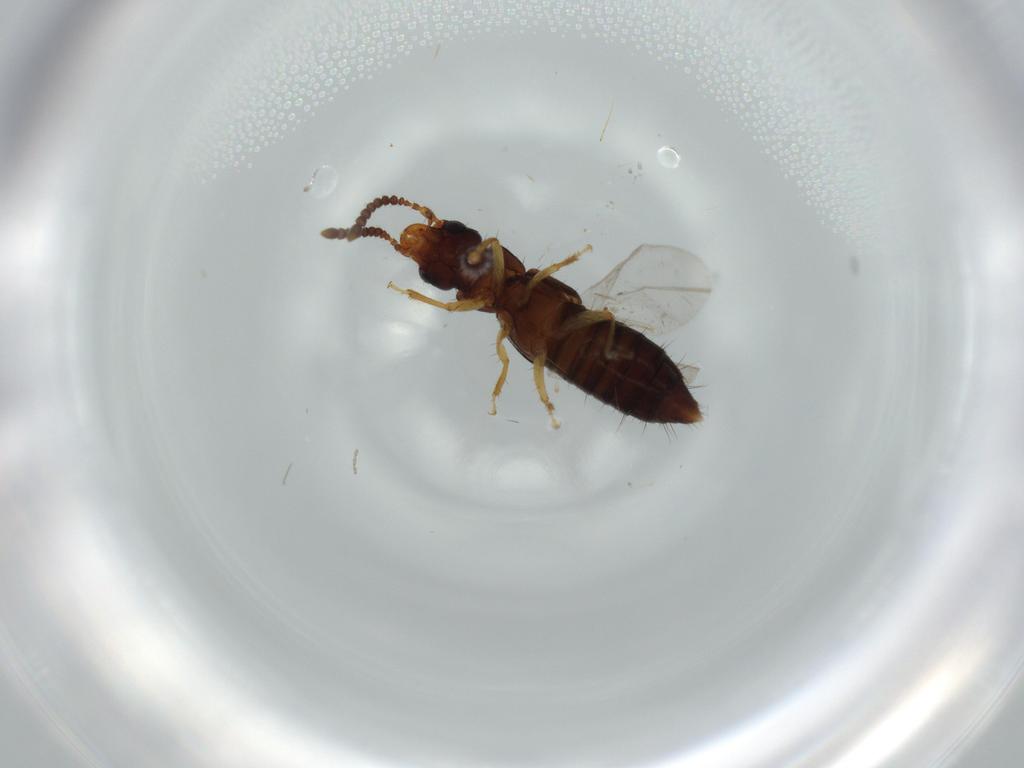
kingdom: Animalia
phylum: Arthropoda
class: Insecta
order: Coleoptera
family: Staphylinidae
